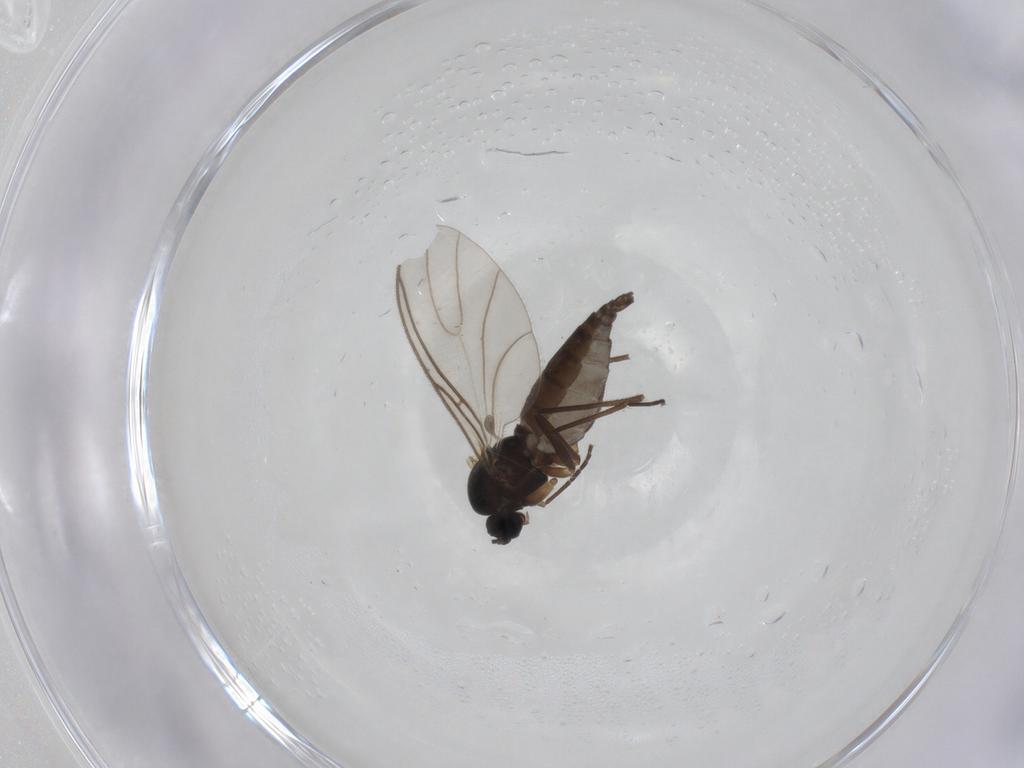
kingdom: Animalia
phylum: Arthropoda
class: Insecta
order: Diptera
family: Sciaridae
